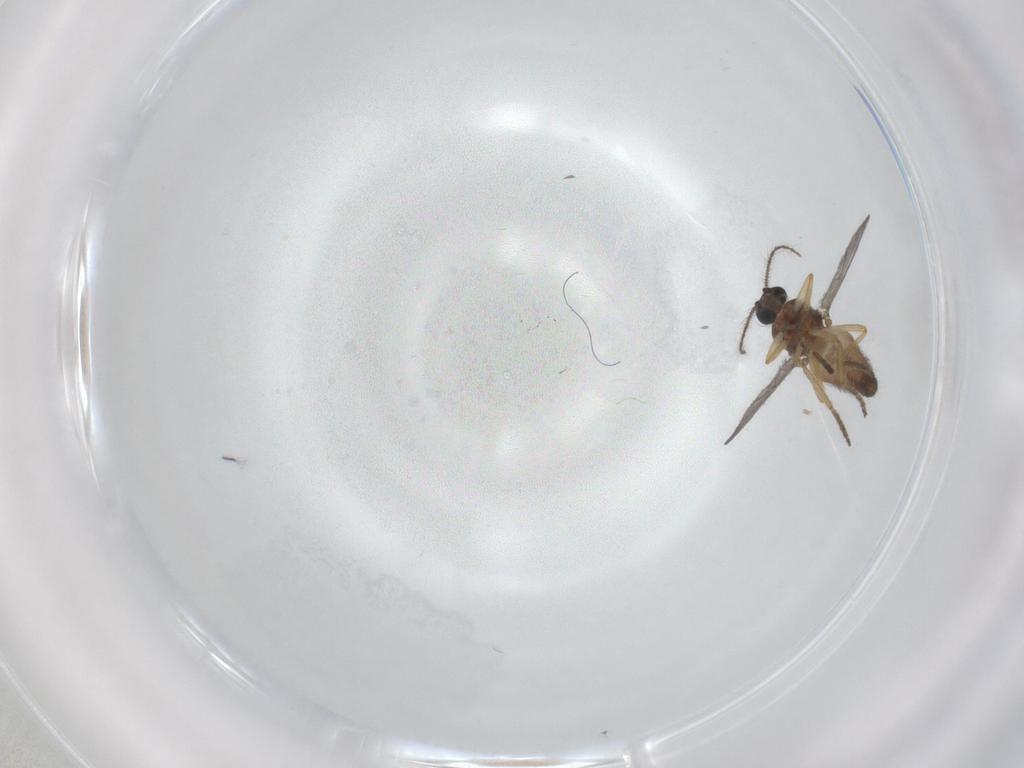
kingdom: Animalia
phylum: Arthropoda
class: Insecta
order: Diptera
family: Ceratopogonidae
